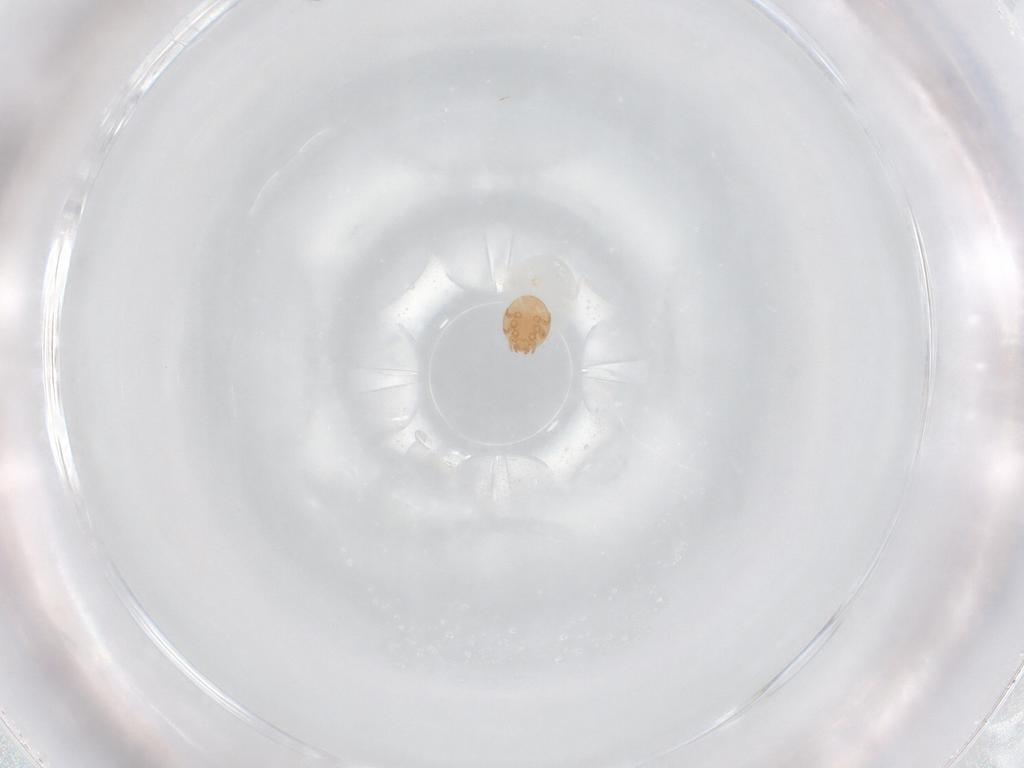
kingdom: Animalia
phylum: Arthropoda
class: Arachnida
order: Mesostigmata
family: Trematuridae
